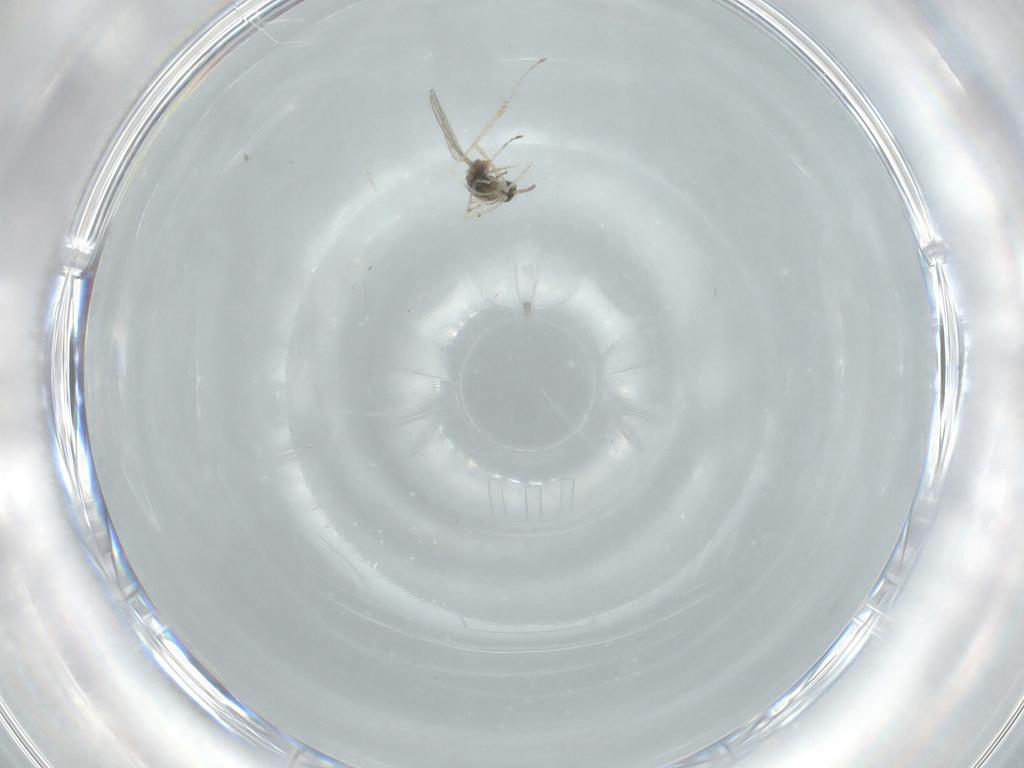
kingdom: Animalia
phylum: Arthropoda
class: Insecta
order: Diptera
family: Cecidomyiidae
